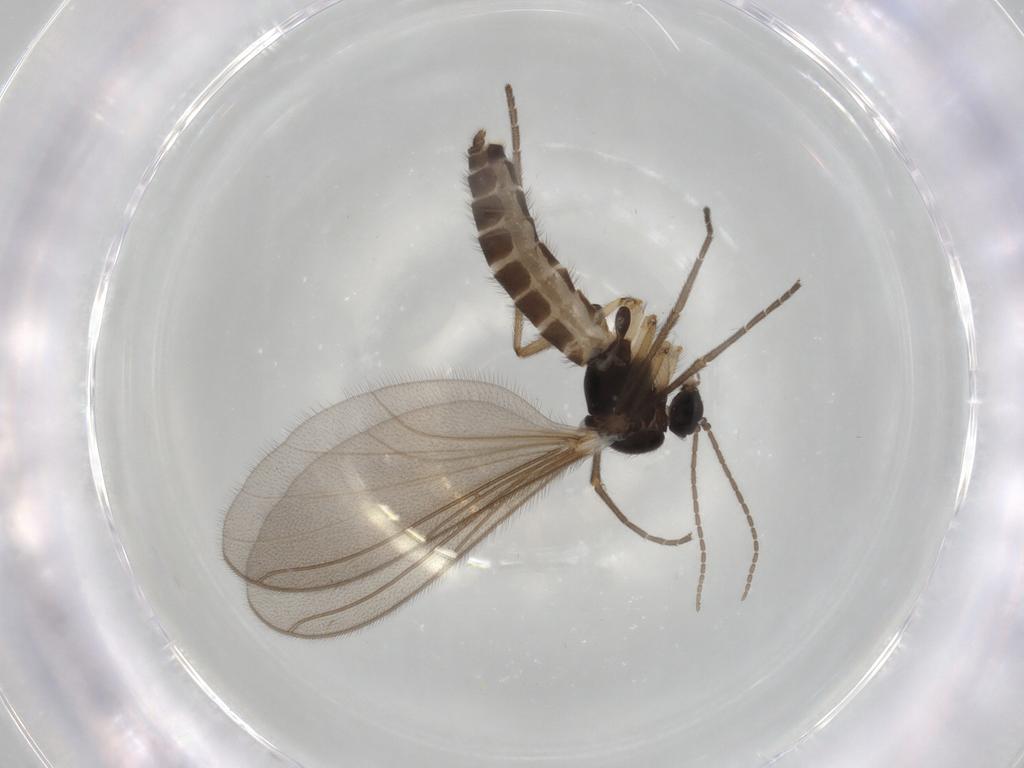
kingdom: Animalia
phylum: Arthropoda
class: Insecta
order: Diptera
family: Mycetophilidae
